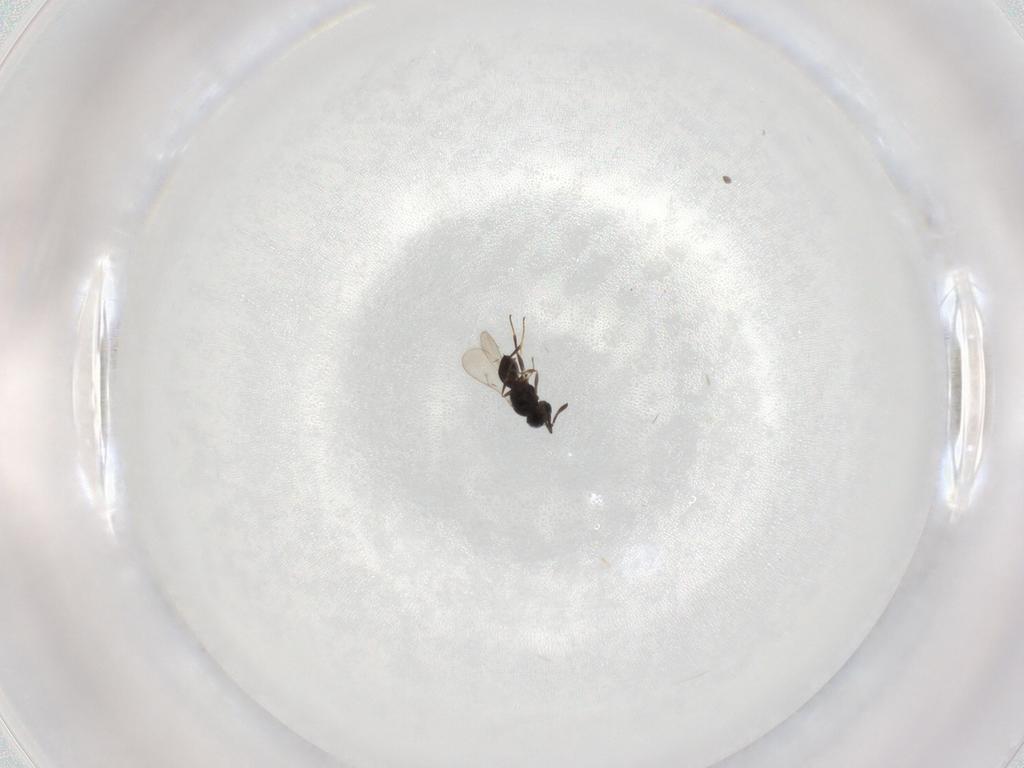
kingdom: Animalia
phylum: Arthropoda
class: Insecta
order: Hymenoptera
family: Scelionidae
